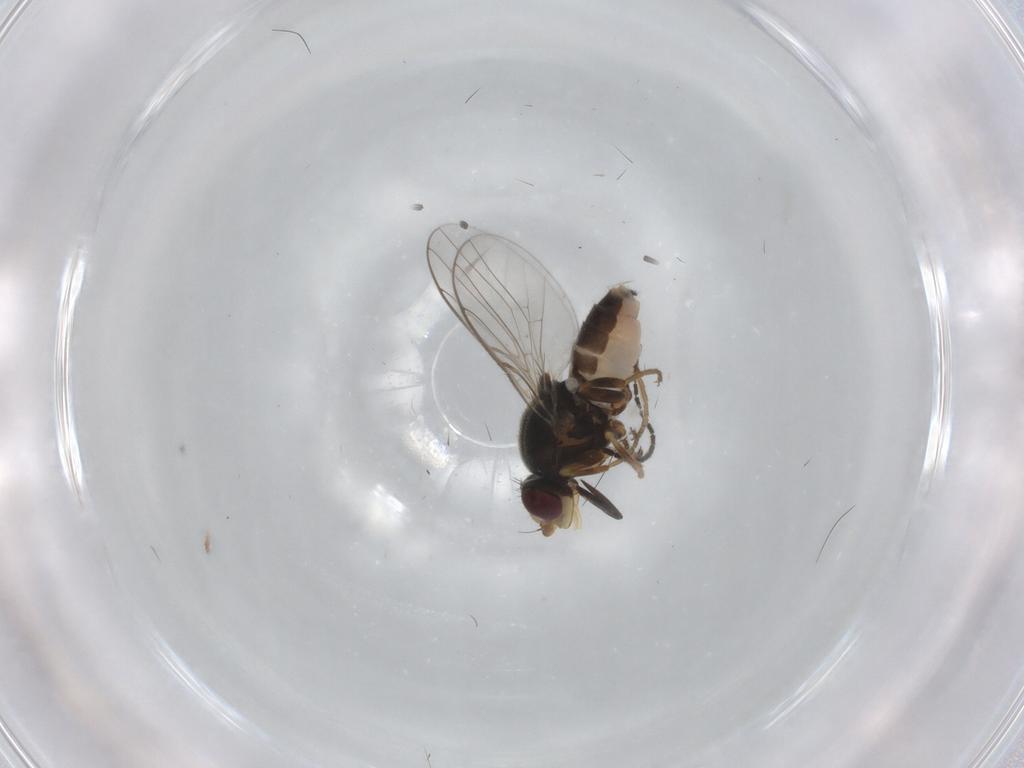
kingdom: Animalia
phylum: Arthropoda
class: Insecta
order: Diptera
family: Chloropidae
